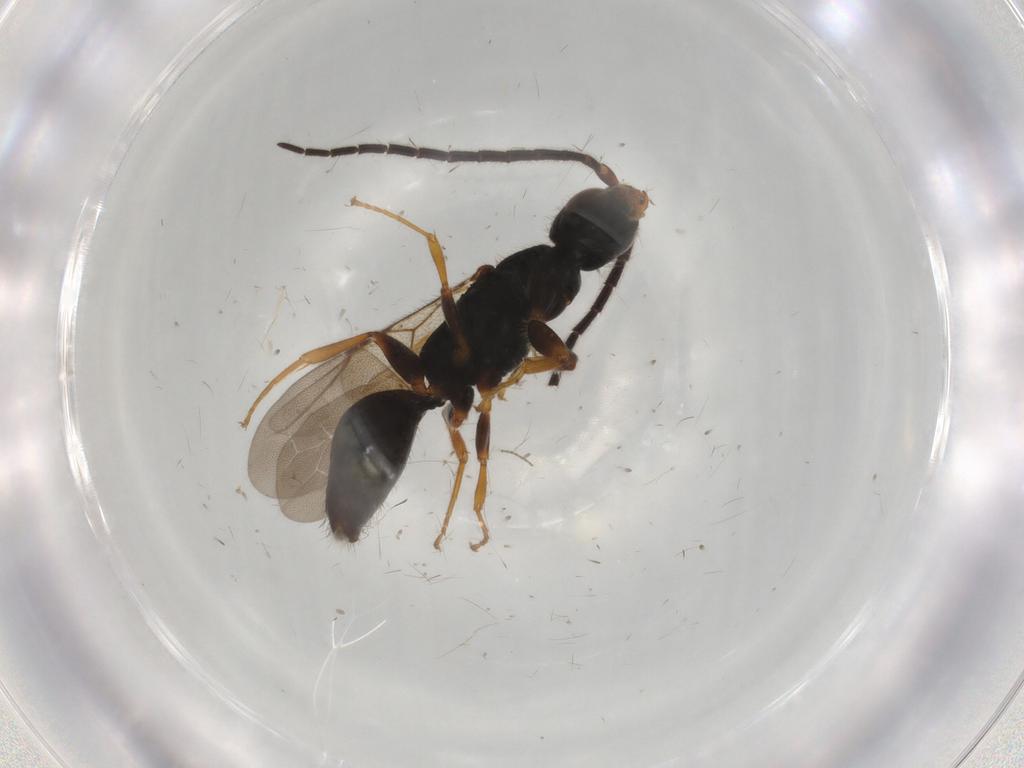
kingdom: Animalia
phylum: Arthropoda
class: Insecta
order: Hymenoptera
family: Bethylidae
